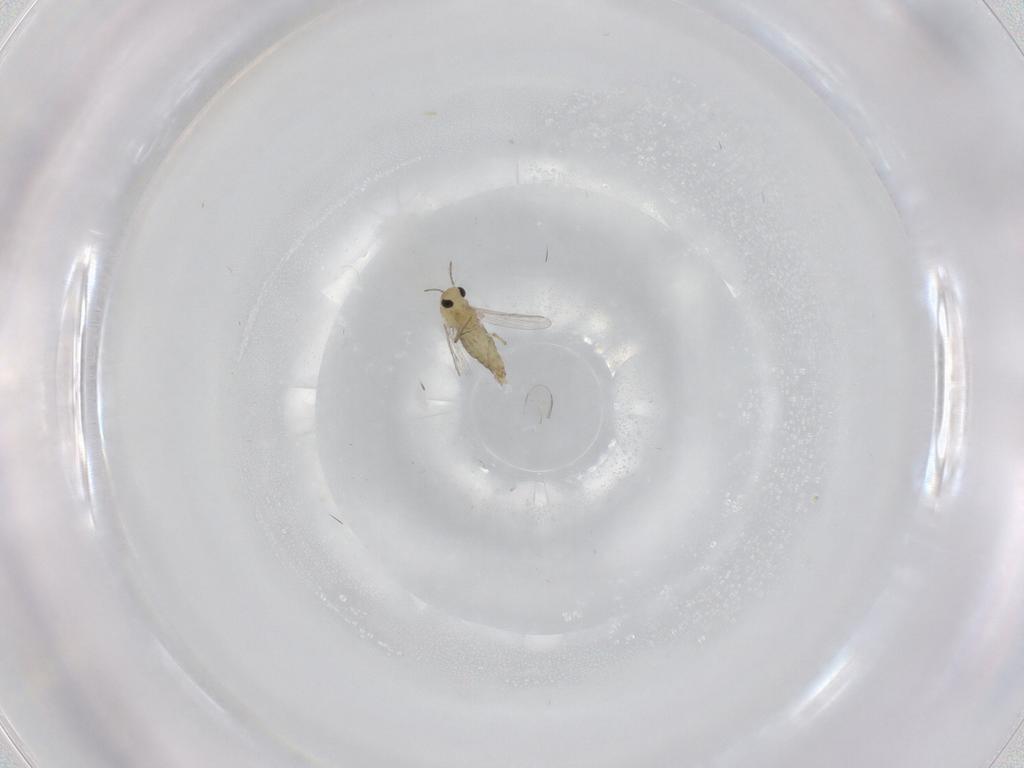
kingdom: Animalia
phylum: Arthropoda
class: Insecta
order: Diptera
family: Chironomidae
